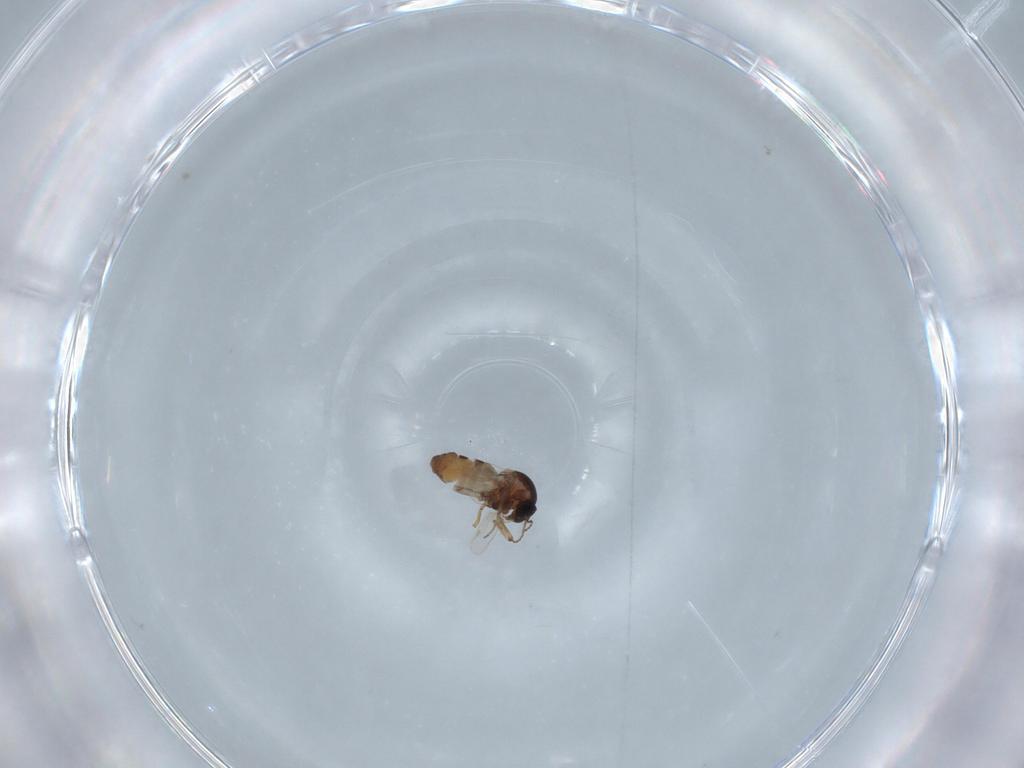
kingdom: Animalia
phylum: Arthropoda
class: Insecta
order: Diptera
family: Ceratopogonidae
